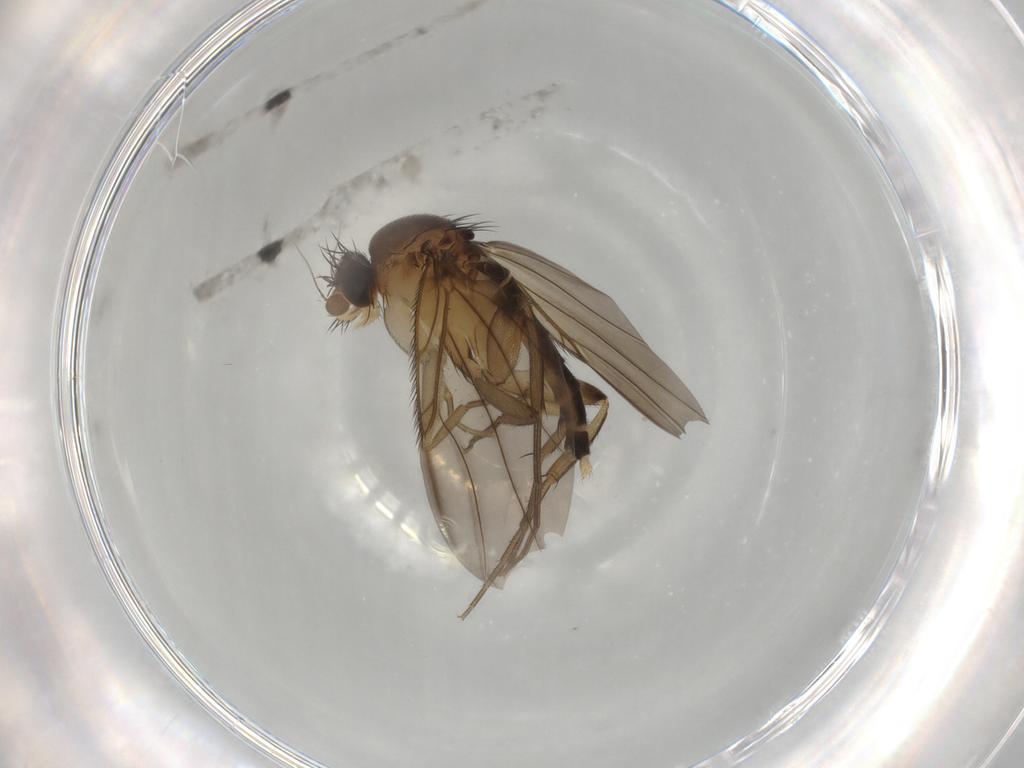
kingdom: Animalia
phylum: Arthropoda
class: Insecta
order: Diptera
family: Phoridae
